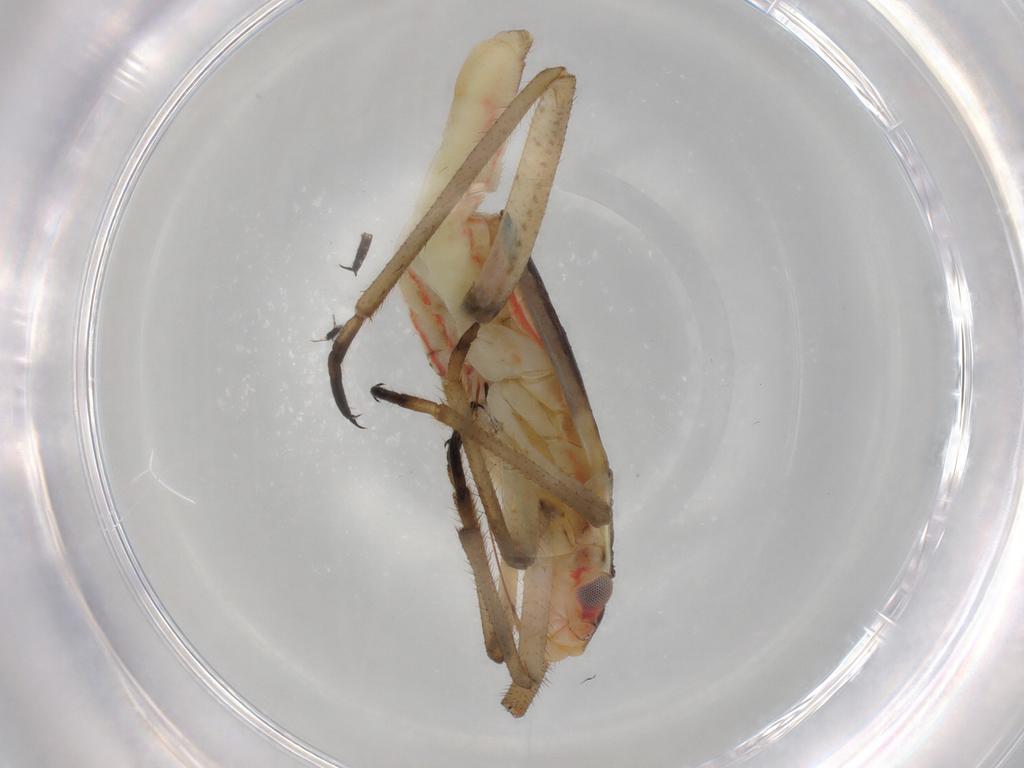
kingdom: Animalia
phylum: Arthropoda
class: Insecta
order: Hemiptera
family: Miridae
